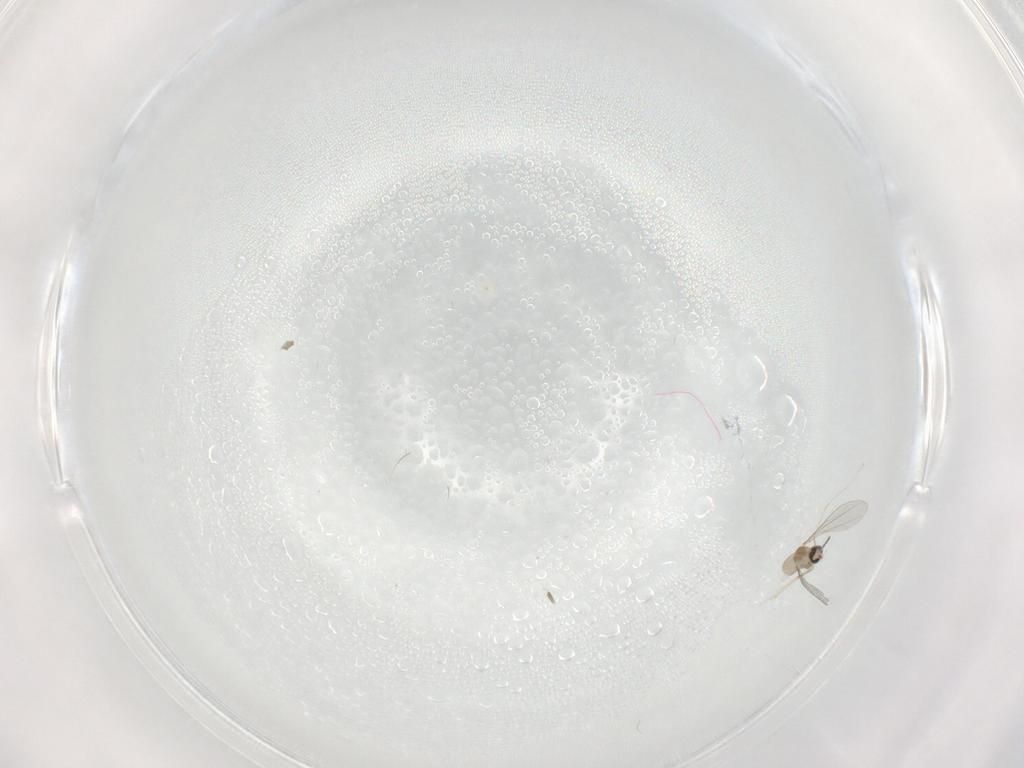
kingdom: Animalia
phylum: Arthropoda
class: Insecta
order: Diptera
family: Cecidomyiidae
